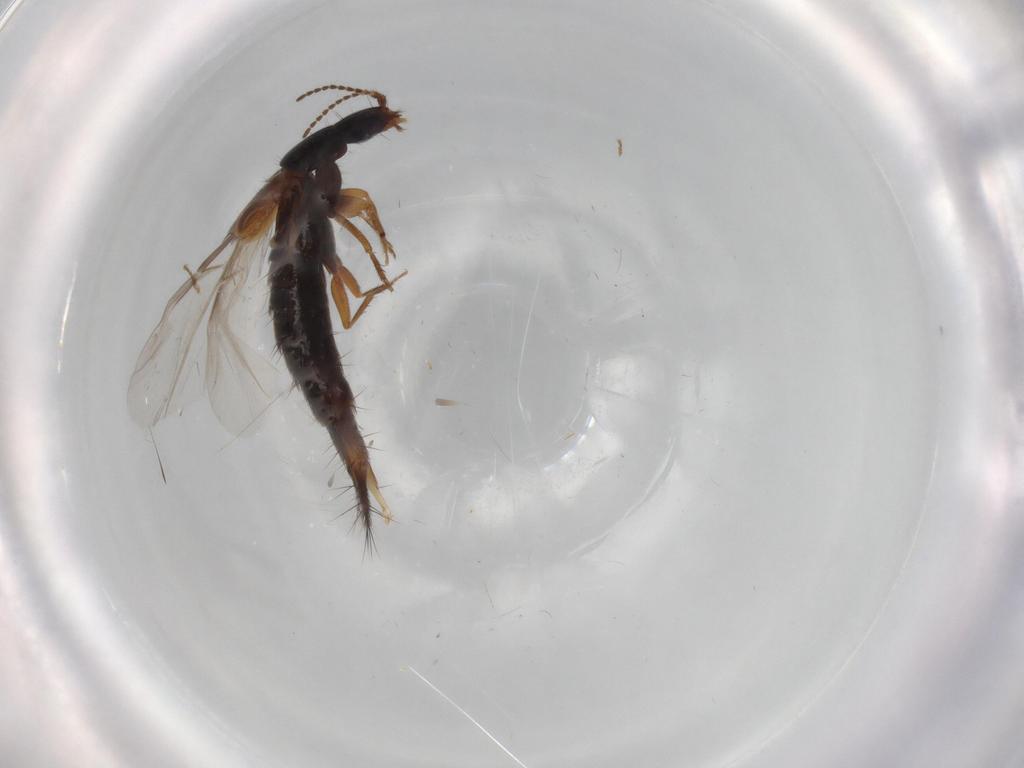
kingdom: Animalia
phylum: Arthropoda
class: Insecta
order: Coleoptera
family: Staphylinidae
